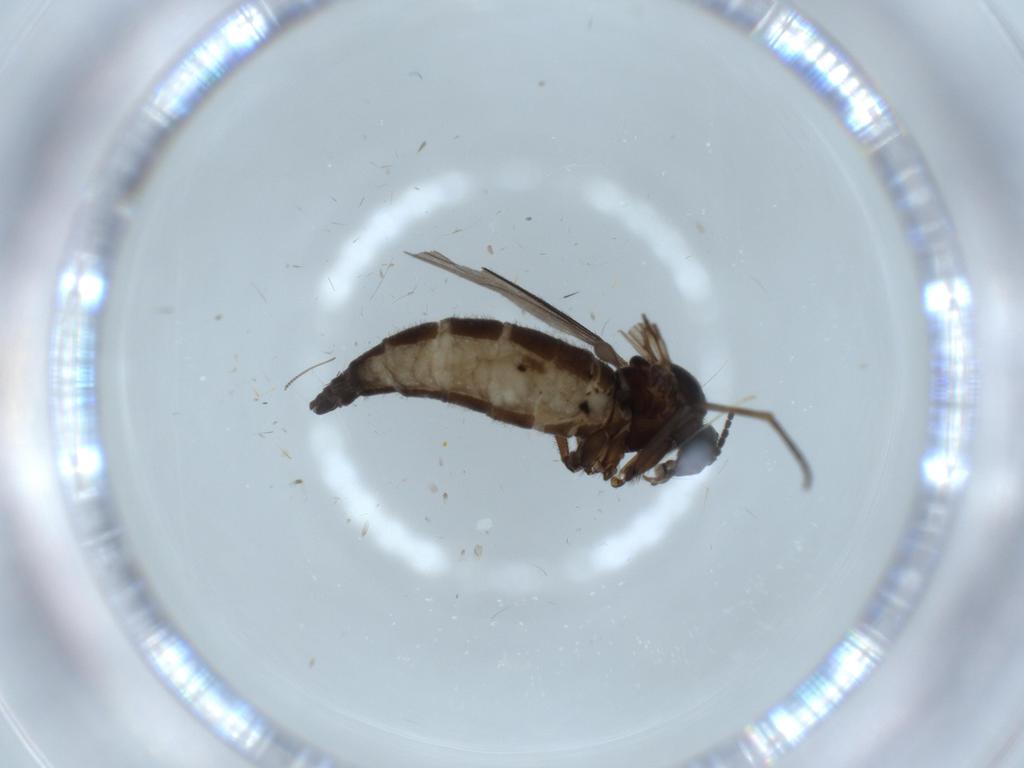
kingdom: Animalia
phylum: Arthropoda
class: Insecta
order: Diptera
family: Sciaridae
